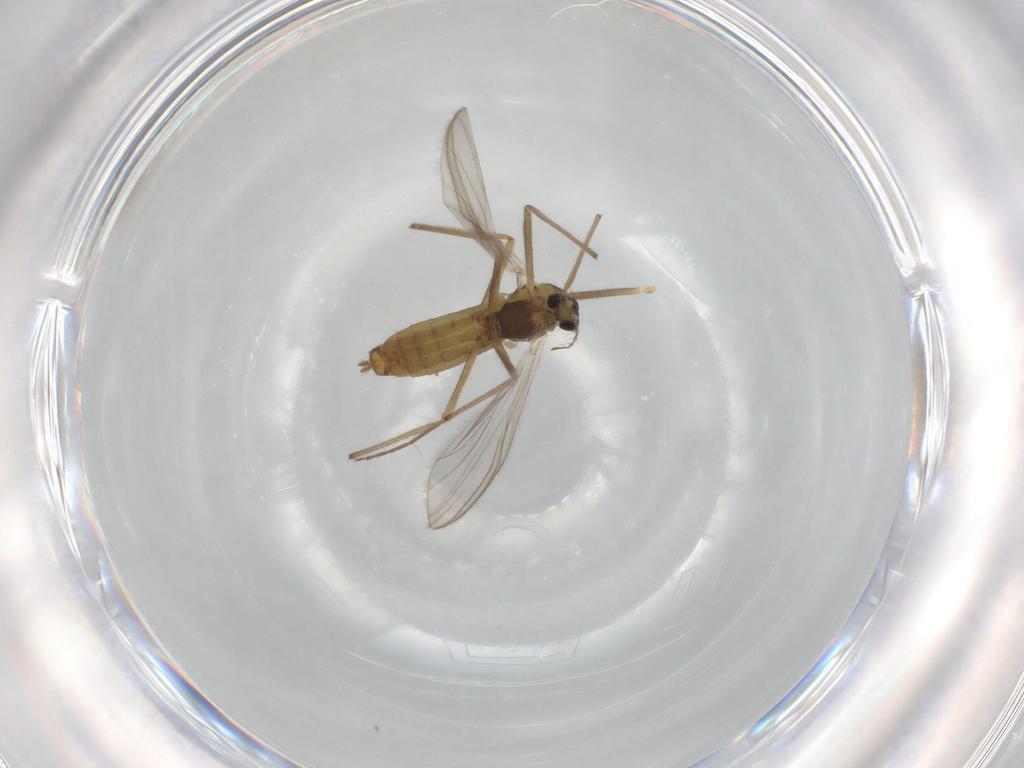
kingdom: Animalia
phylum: Arthropoda
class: Insecta
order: Diptera
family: Chironomidae
